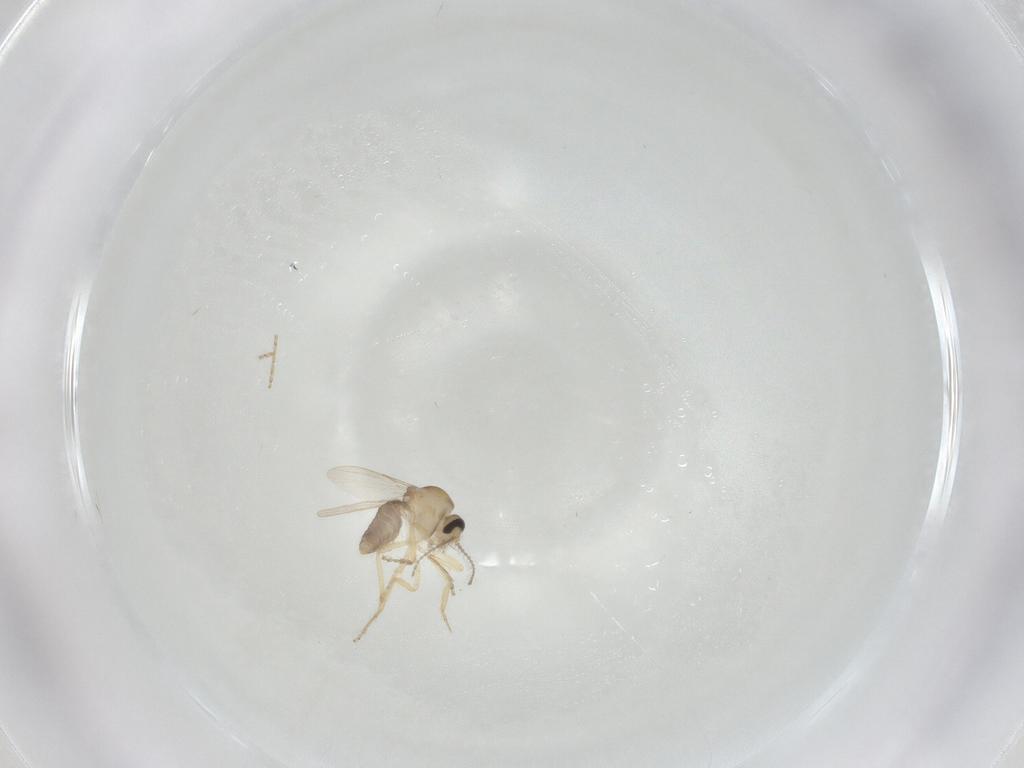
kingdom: Animalia
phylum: Arthropoda
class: Insecta
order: Diptera
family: Ceratopogonidae
